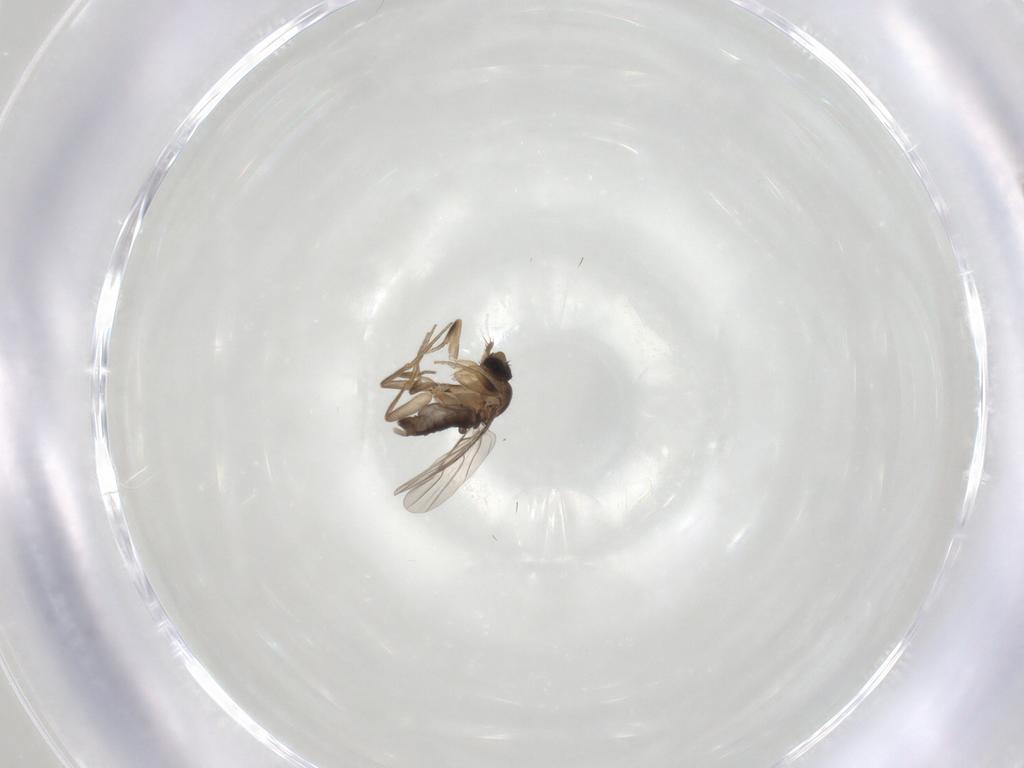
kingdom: Animalia
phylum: Arthropoda
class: Insecta
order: Diptera
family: Phoridae
